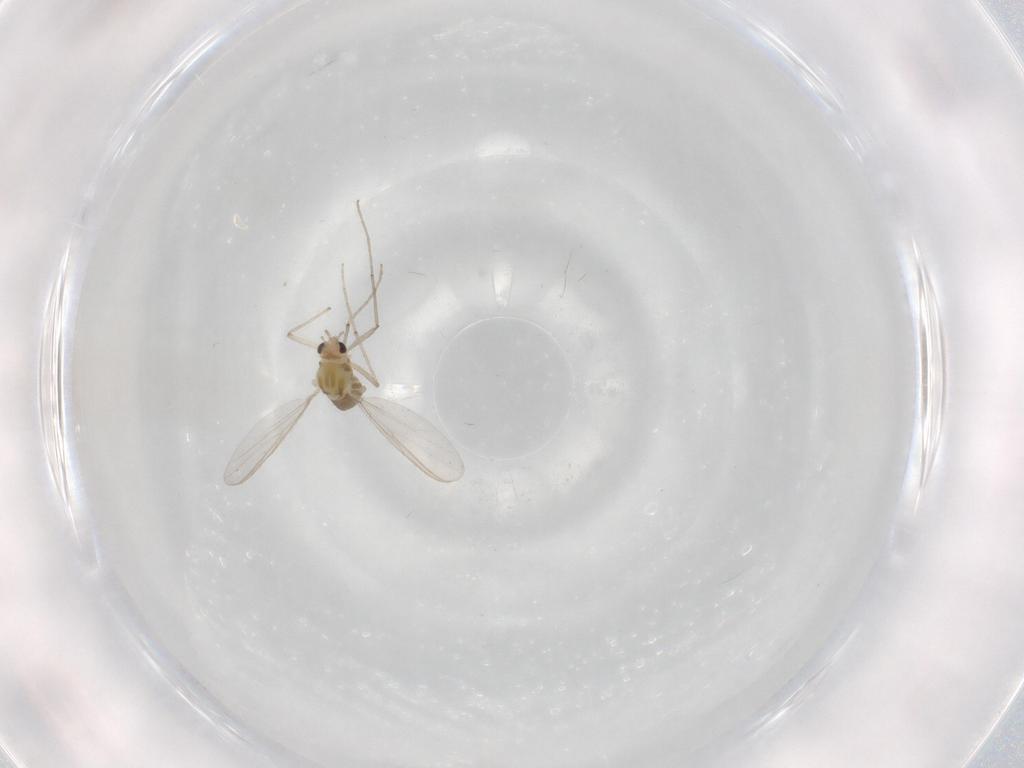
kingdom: Animalia
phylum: Arthropoda
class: Insecta
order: Diptera
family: Chironomidae
